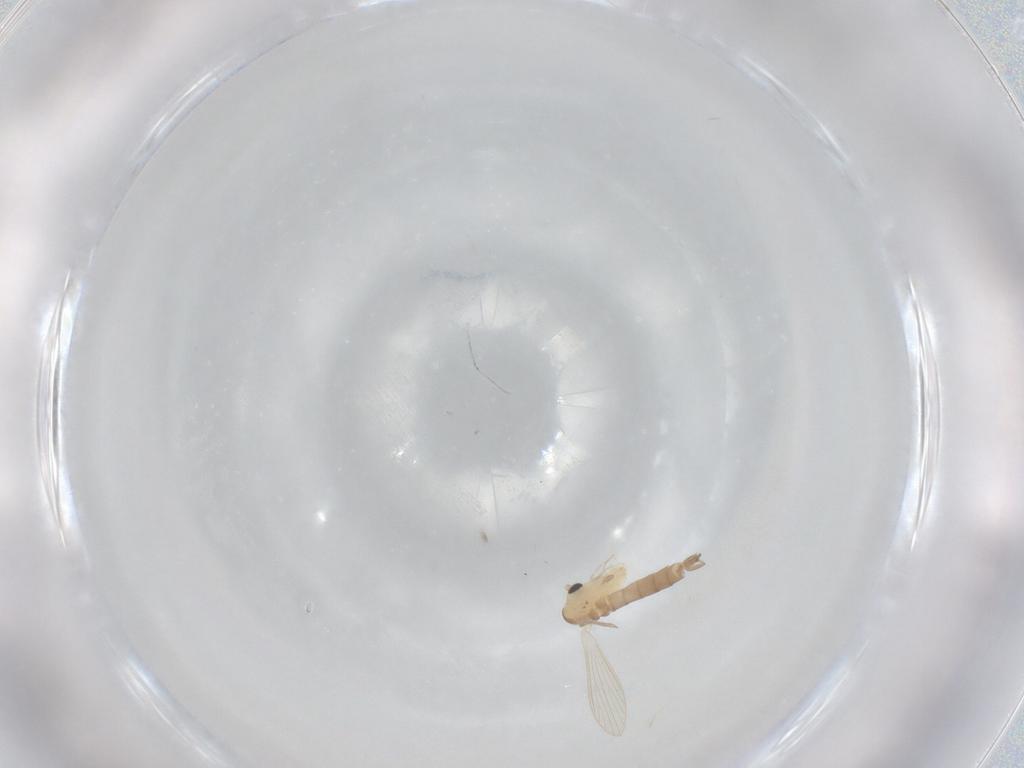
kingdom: Animalia
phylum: Arthropoda
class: Insecta
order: Diptera
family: Psychodidae
